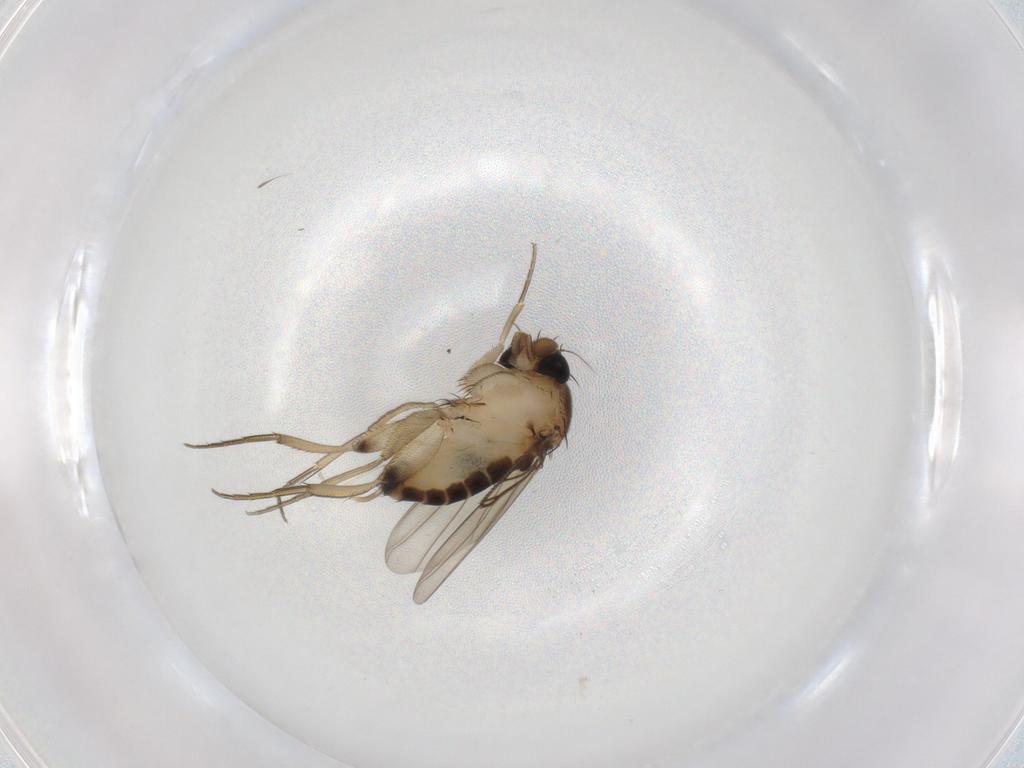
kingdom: Animalia
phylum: Arthropoda
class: Insecta
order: Diptera
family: Phoridae
